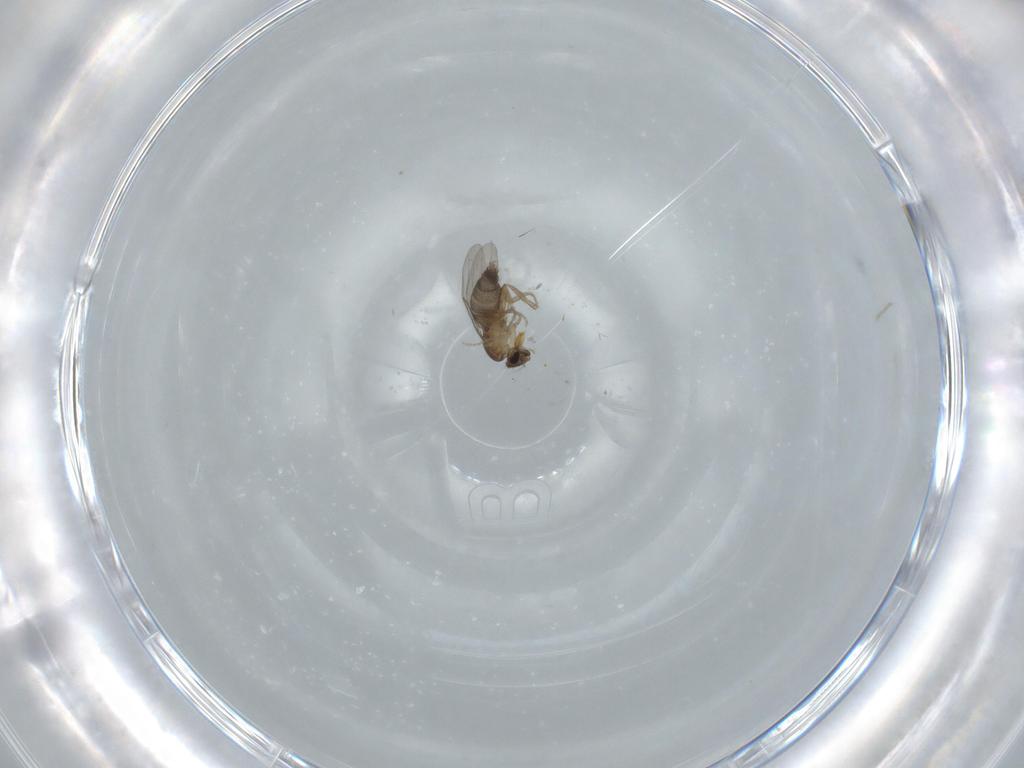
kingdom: Animalia
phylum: Arthropoda
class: Insecta
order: Diptera
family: Phoridae
